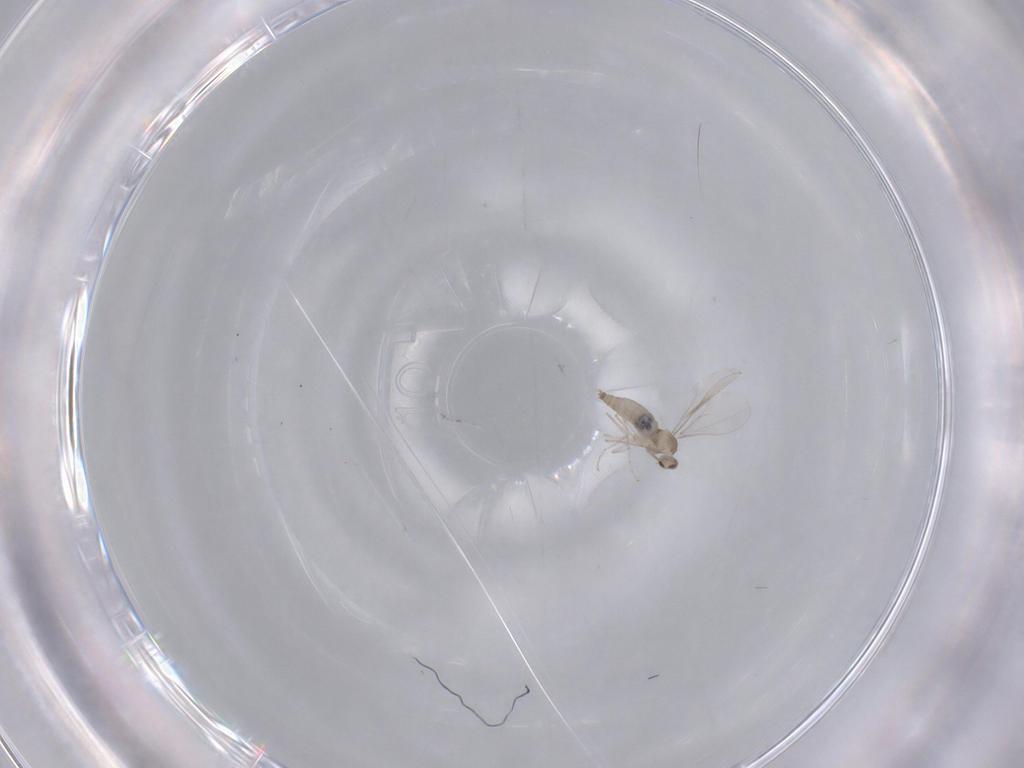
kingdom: Animalia
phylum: Arthropoda
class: Insecta
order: Diptera
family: Cecidomyiidae
